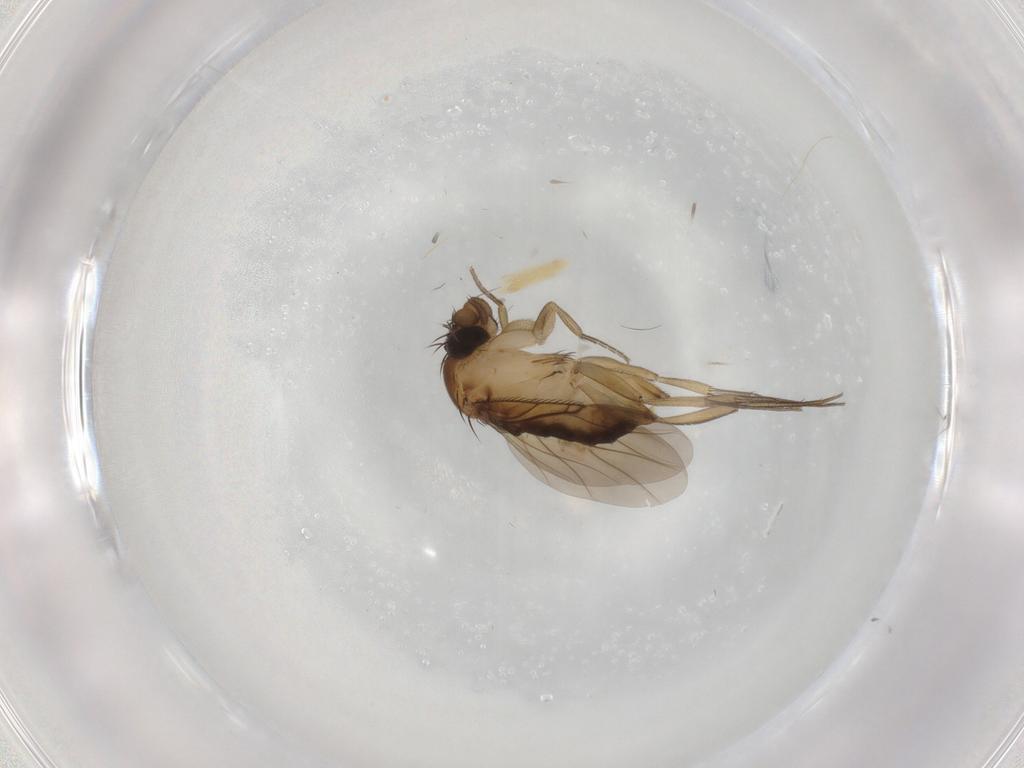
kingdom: Animalia
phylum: Arthropoda
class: Insecta
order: Diptera
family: Phoridae
